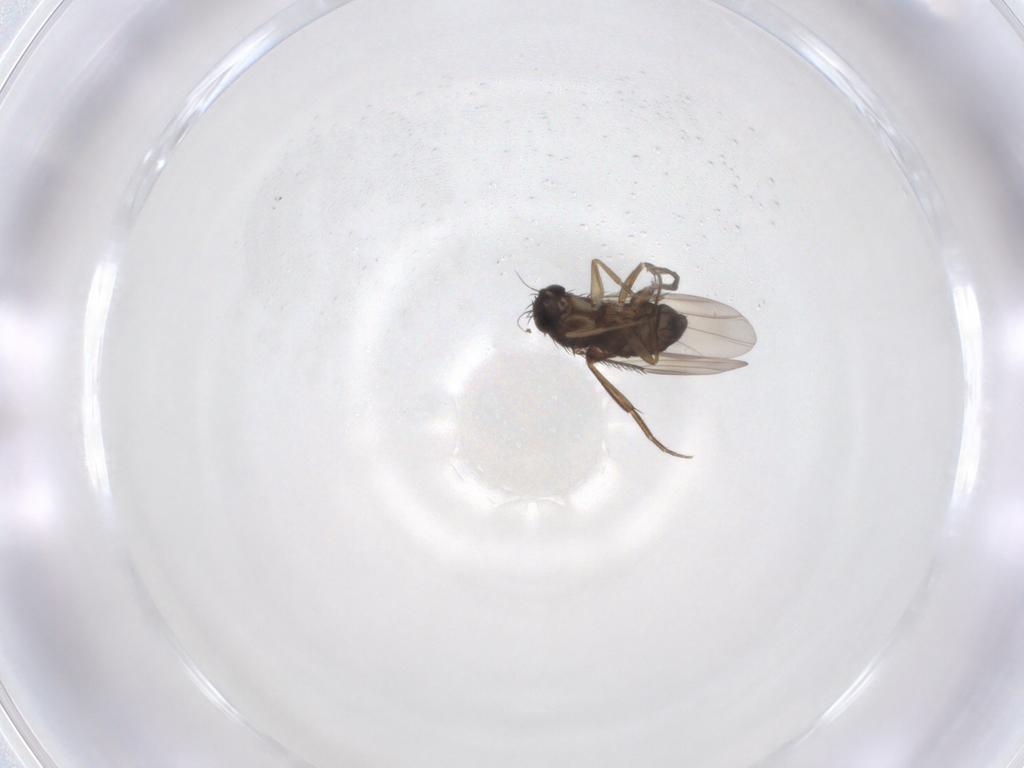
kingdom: Animalia
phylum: Arthropoda
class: Insecta
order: Diptera
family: Phoridae
